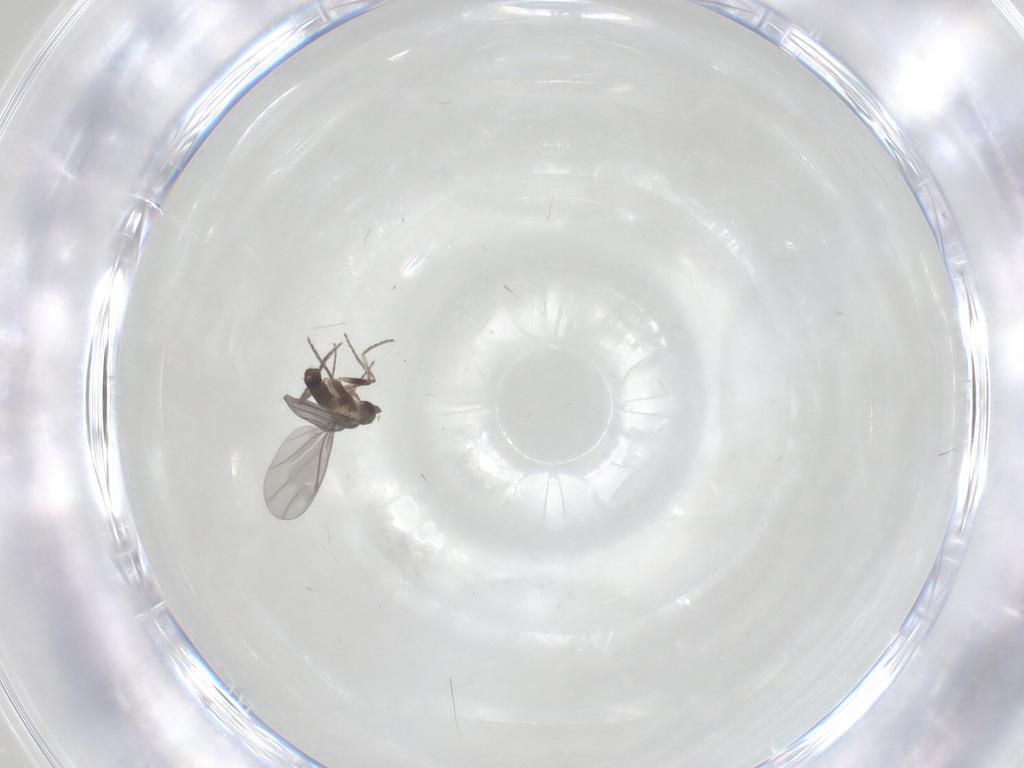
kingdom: Animalia
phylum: Arthropoda
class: Insecta
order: Diptera
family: Phoridae
